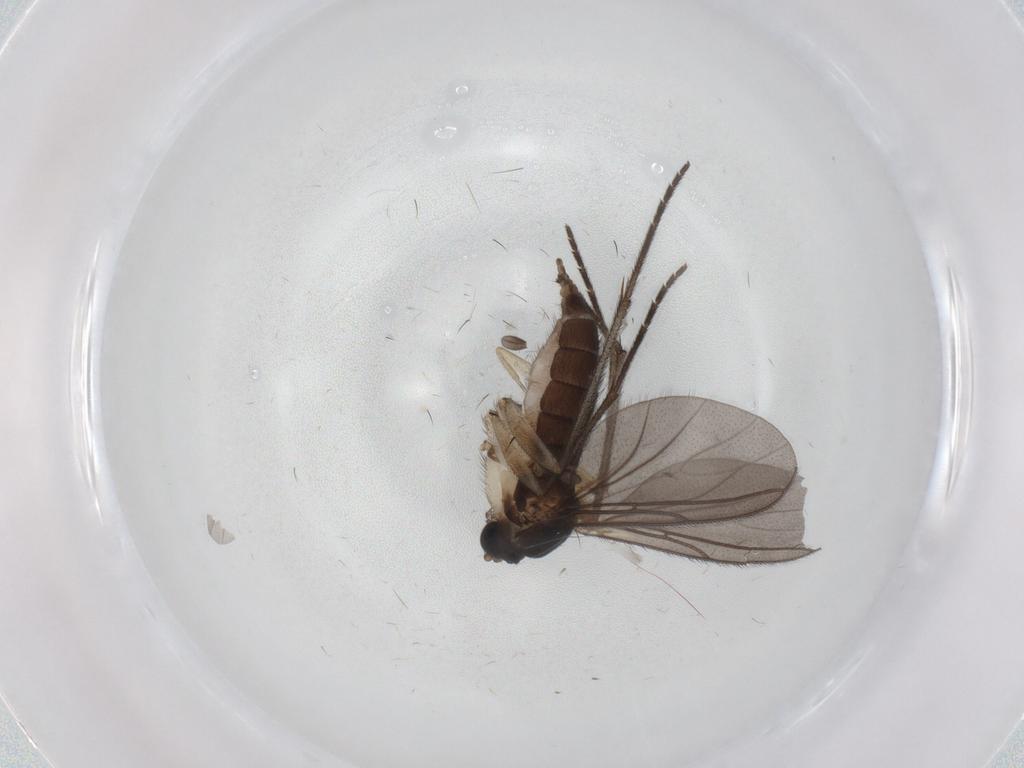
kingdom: Animalia
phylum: Arthropoda
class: Insecta
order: Diptera
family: Sciaridae
